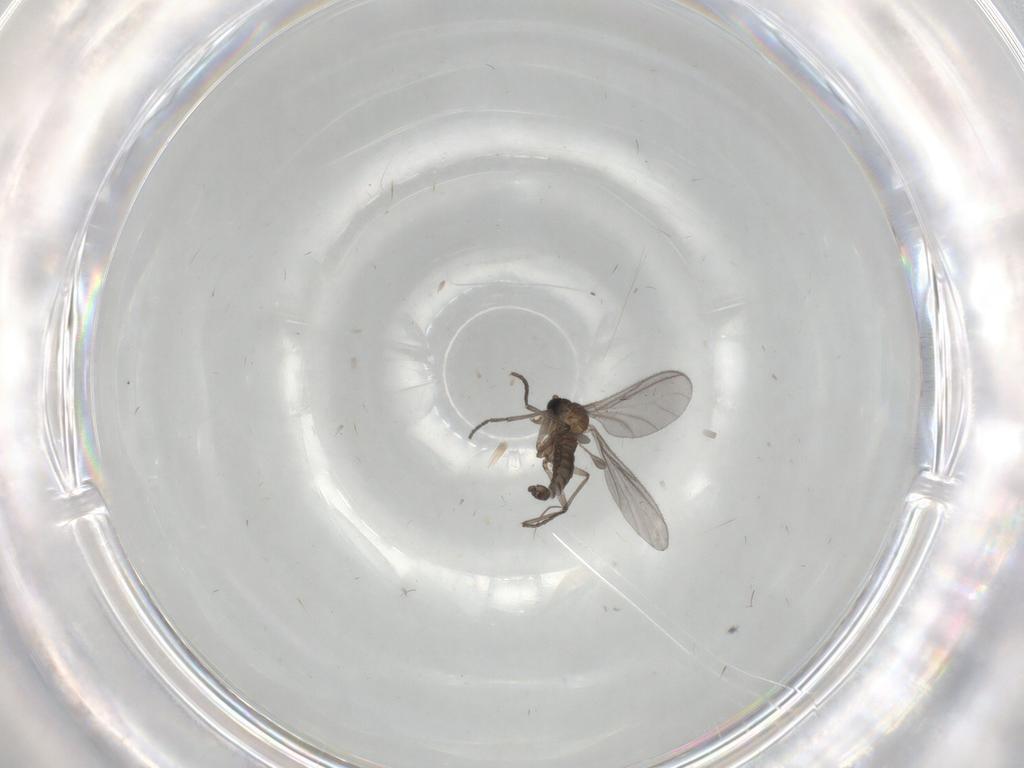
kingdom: Animalia
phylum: Arthropoda
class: Insecta
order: Diptera
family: Sciaridae
